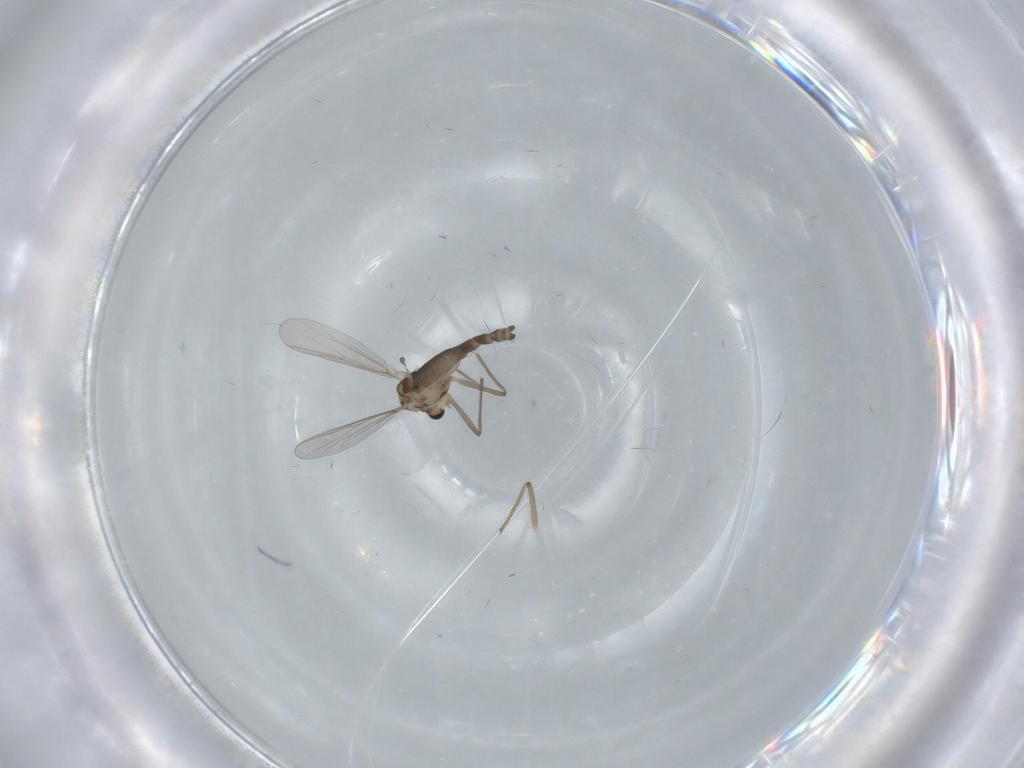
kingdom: Animalia
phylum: Arthropoda
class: Insecta
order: Diptera
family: Chironomidae
